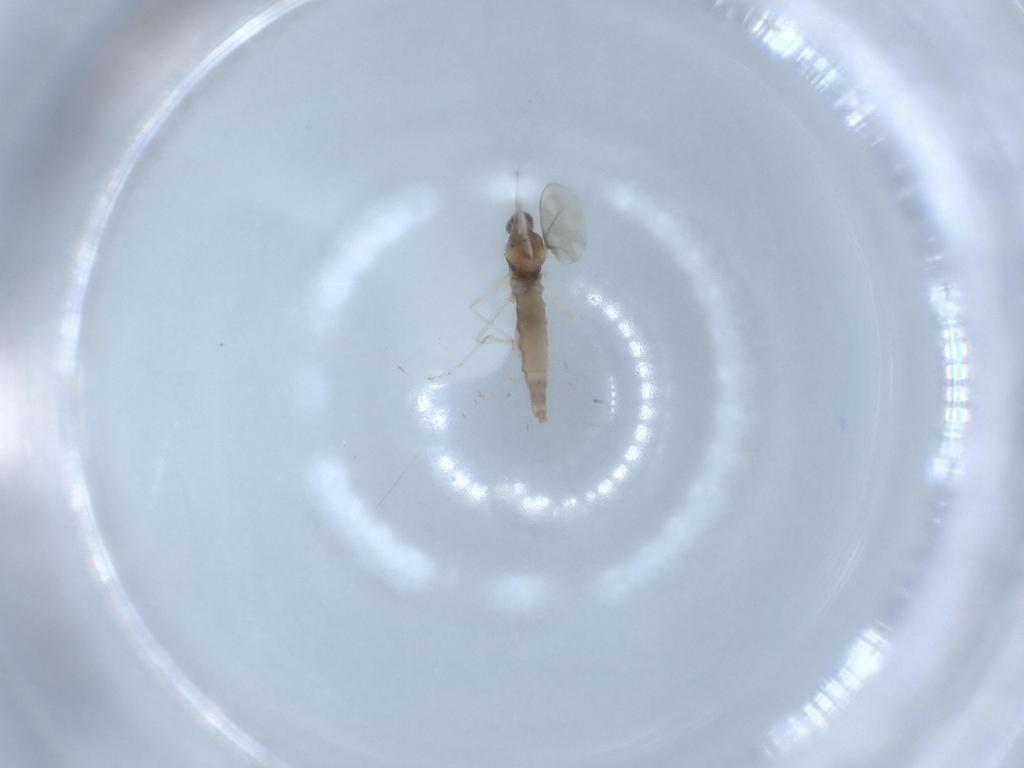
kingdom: Animalia
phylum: Arthropoda
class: Insecta
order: Diptera
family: Cecidomyiidae
